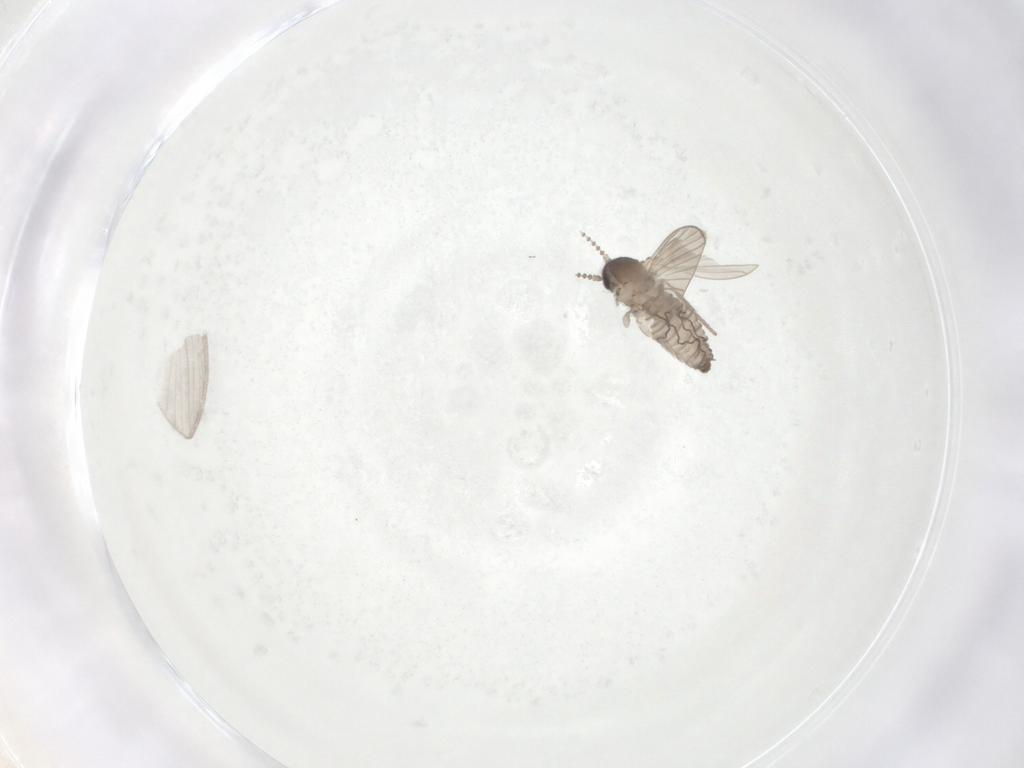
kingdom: Animalia
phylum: Arthropoda
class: Insecta
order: Diptera
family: Psychodidae
